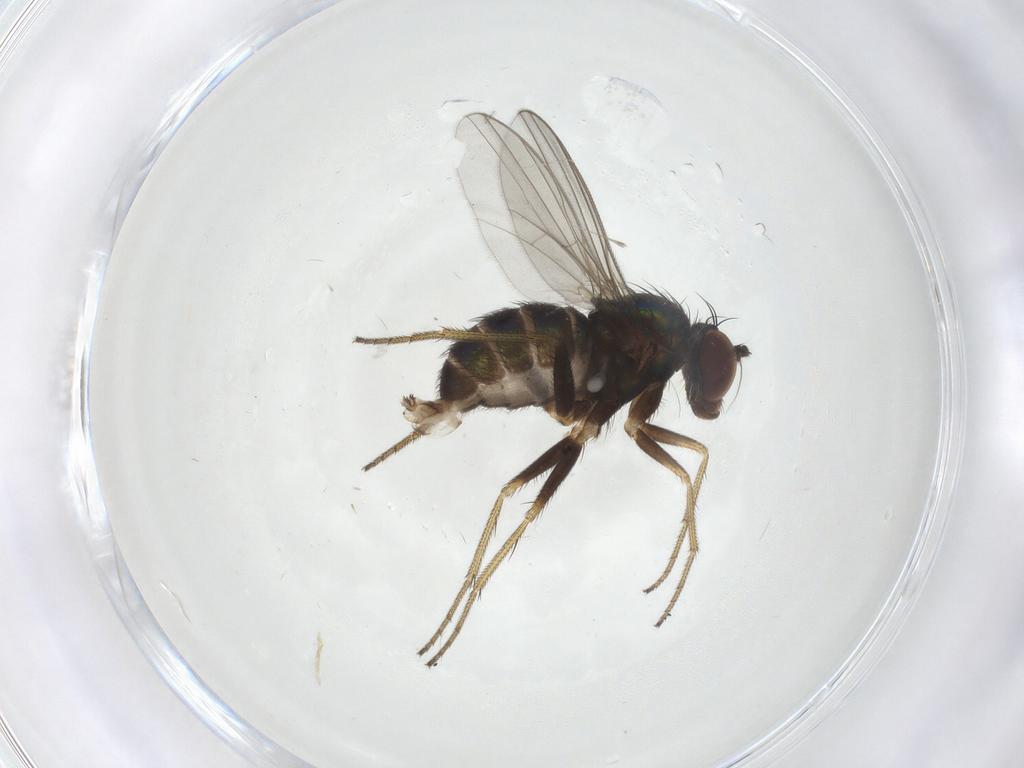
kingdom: Animalia
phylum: Arthropoda
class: Insecta
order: Diptera
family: Dolichopodidae
